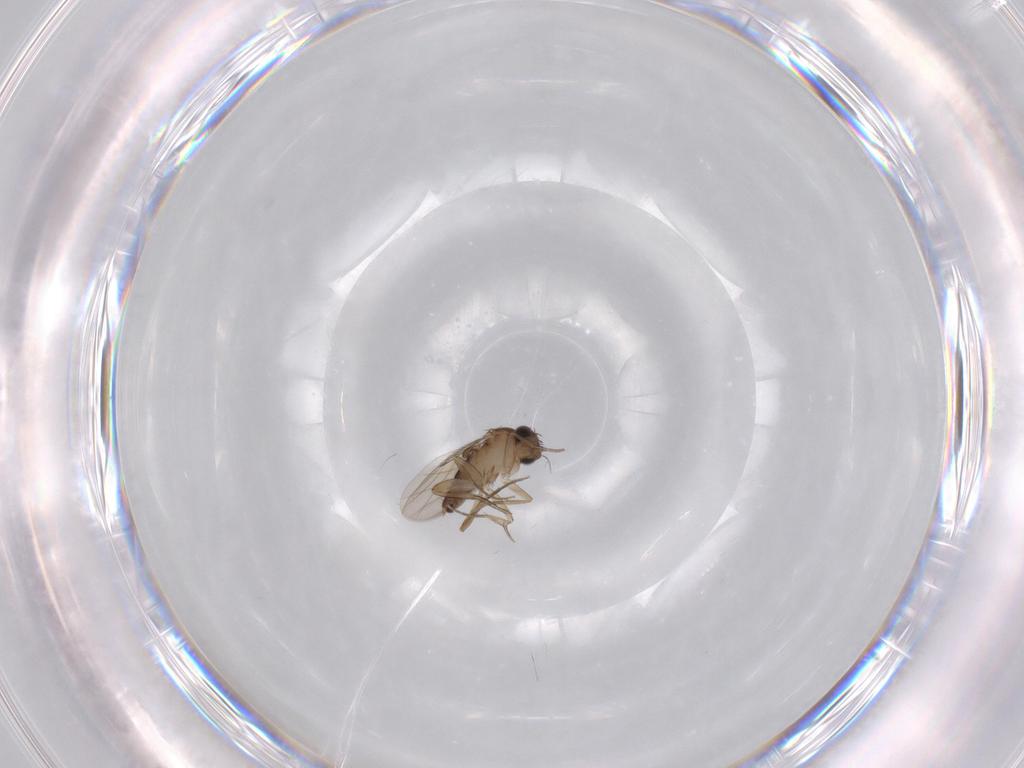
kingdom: Animalia
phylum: Arthropoda
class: Insecta
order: Diptera
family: Phoridae
